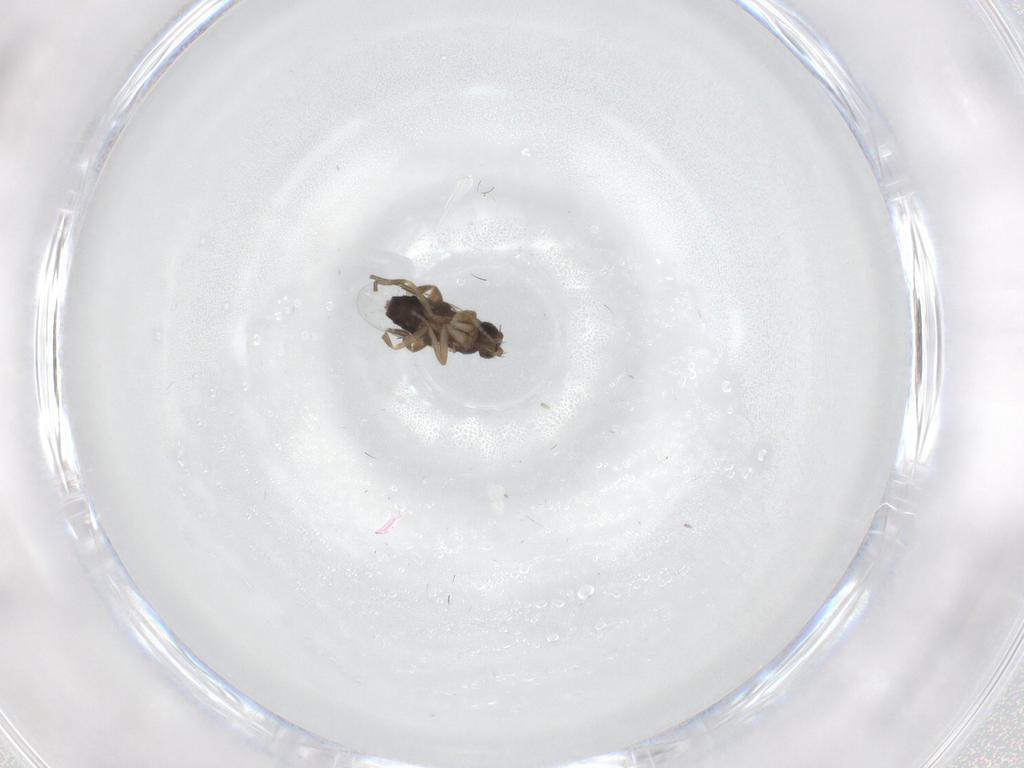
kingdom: Animalia
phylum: Arthropoda
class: Insecta
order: Diptera
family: Phoridae
